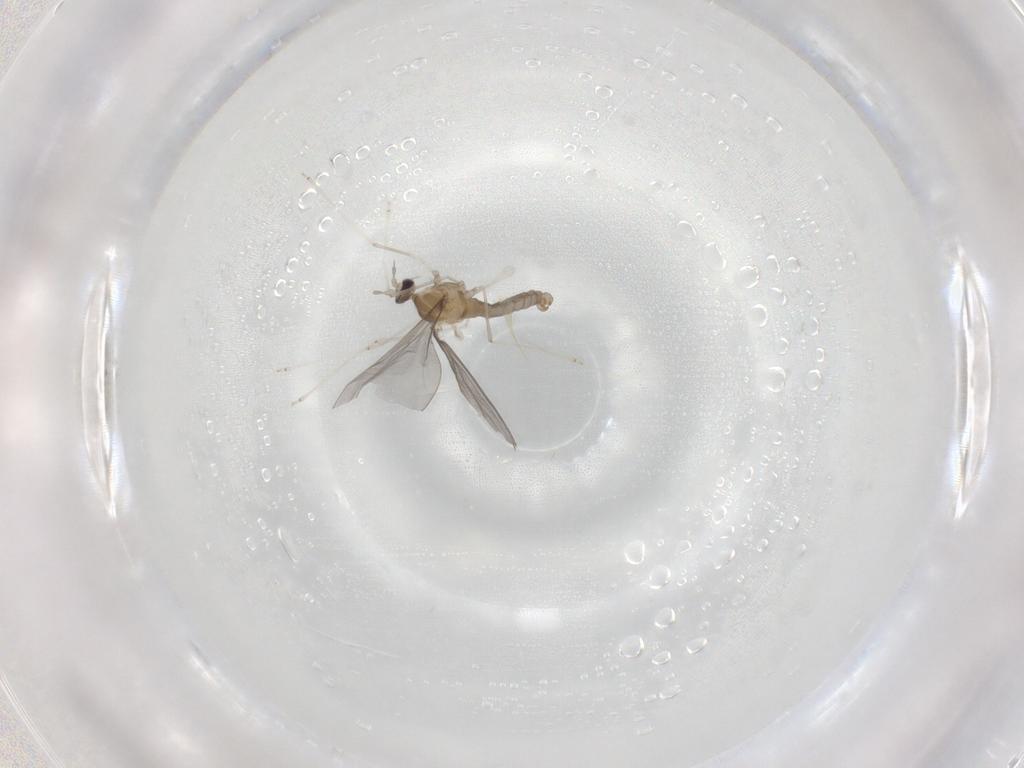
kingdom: Animalia
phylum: Arthropoda
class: Insecta
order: Diptera
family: Cecidomyiidae
